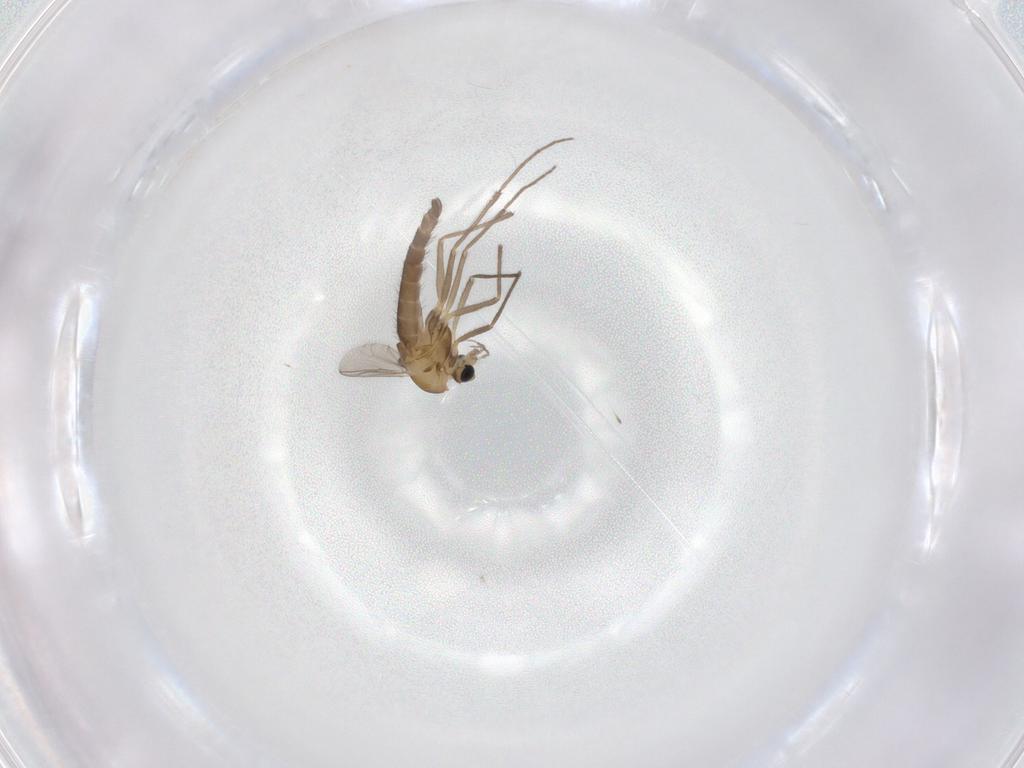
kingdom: Animalia
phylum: Arthropoda
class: Insecta
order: Diptera
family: Chironomidae
